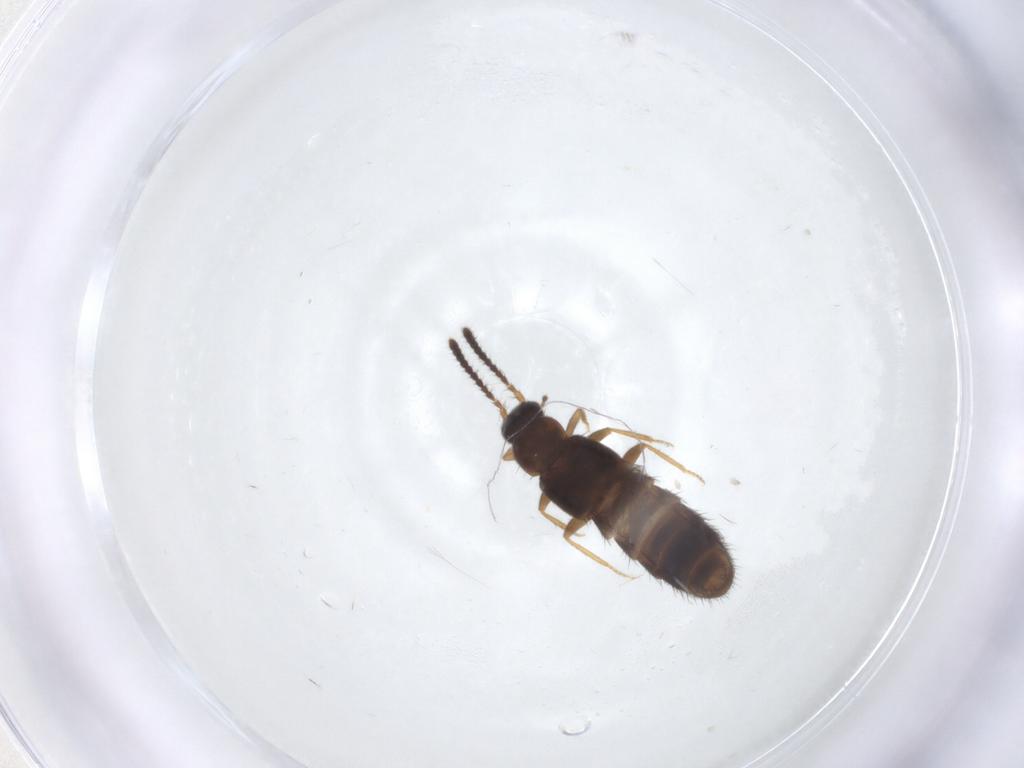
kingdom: Animalia
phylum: Arthropoda
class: Insecta
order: Coleoptera
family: Staphylinidae
